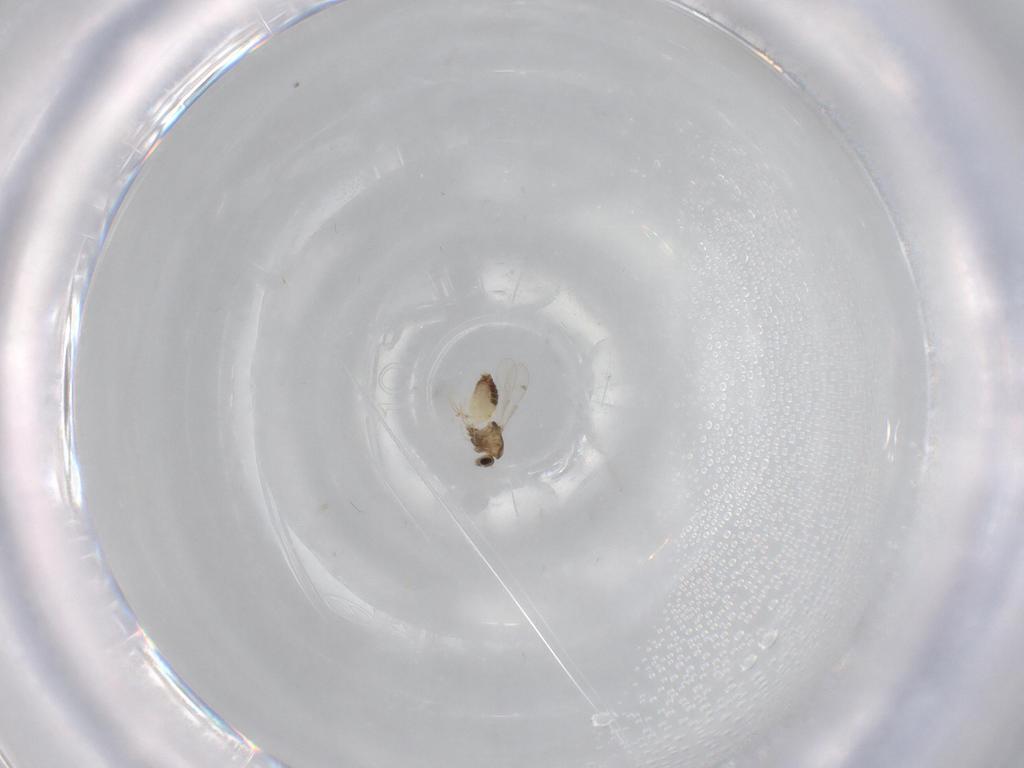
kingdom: Animalia
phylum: Arthropoda
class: Insecta
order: Diptera
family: Chironomidae
